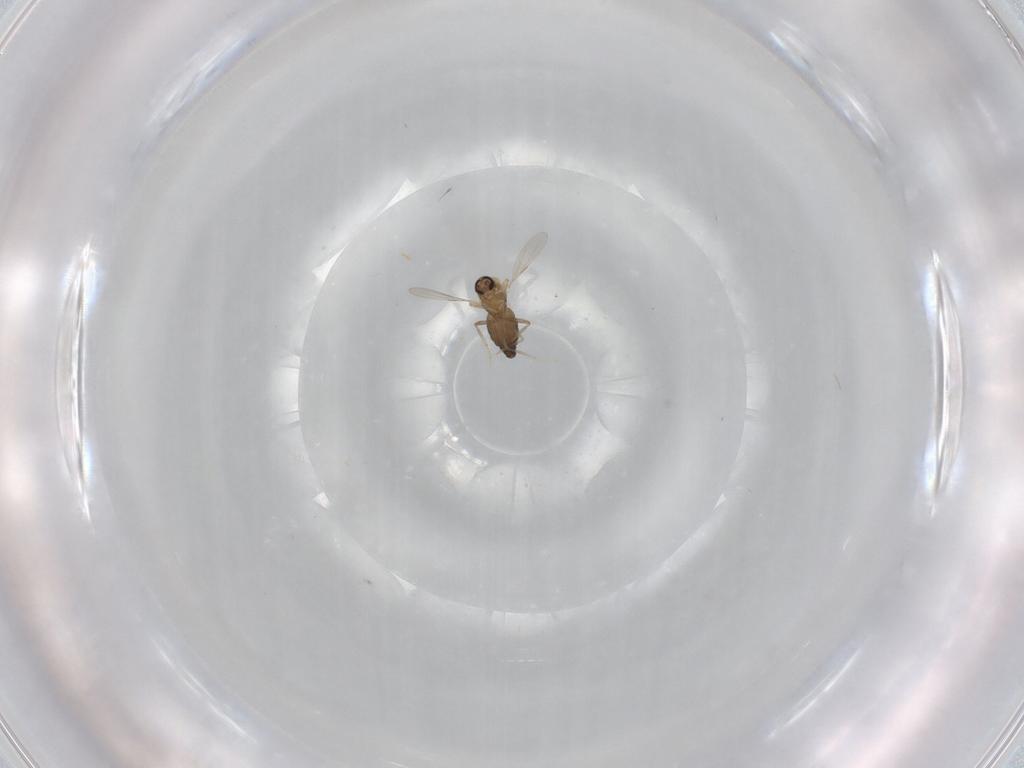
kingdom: Animalia
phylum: Arthropoda
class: Insecta
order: Diptera
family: Ceratopogonidae
